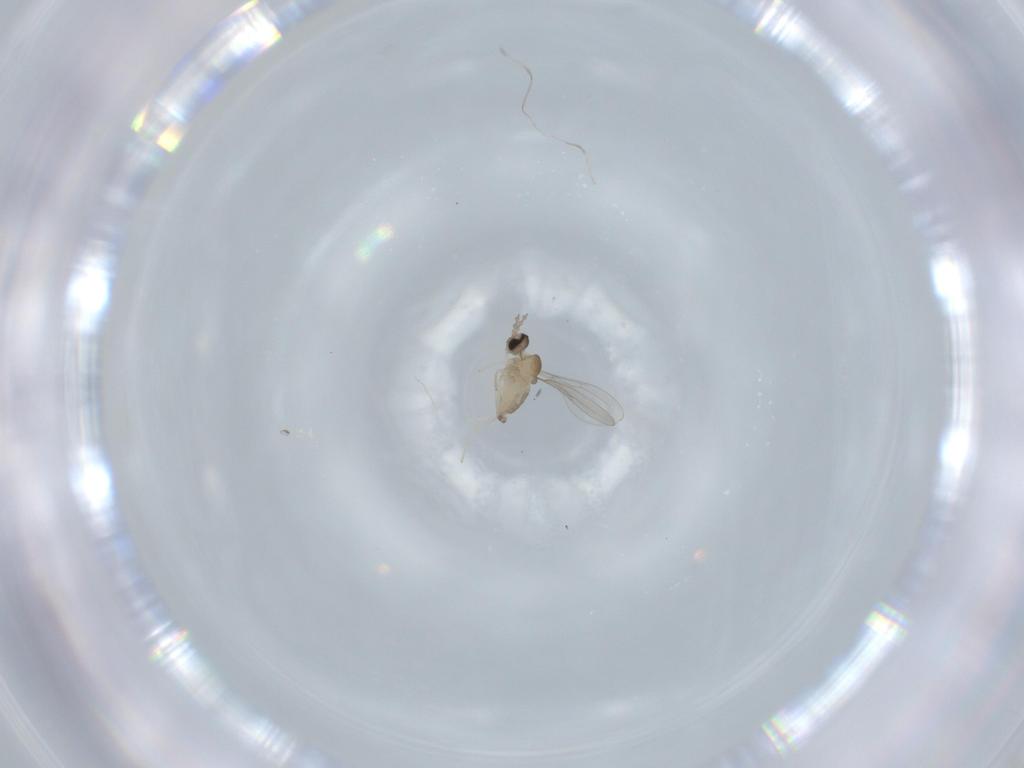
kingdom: Animalia
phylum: Arthropoda
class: Insecta
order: Diptera
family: Cecidomyiidae
